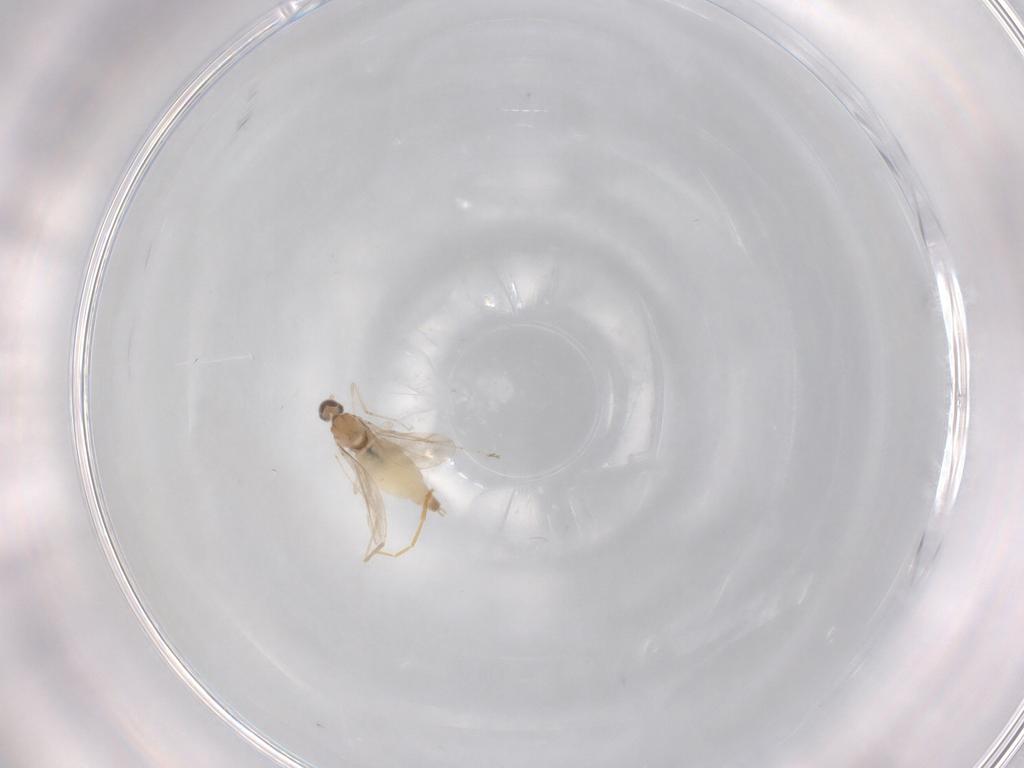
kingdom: Animalia
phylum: Arthropoda
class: Insecta
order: Diptera
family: Cecidomyiidae
